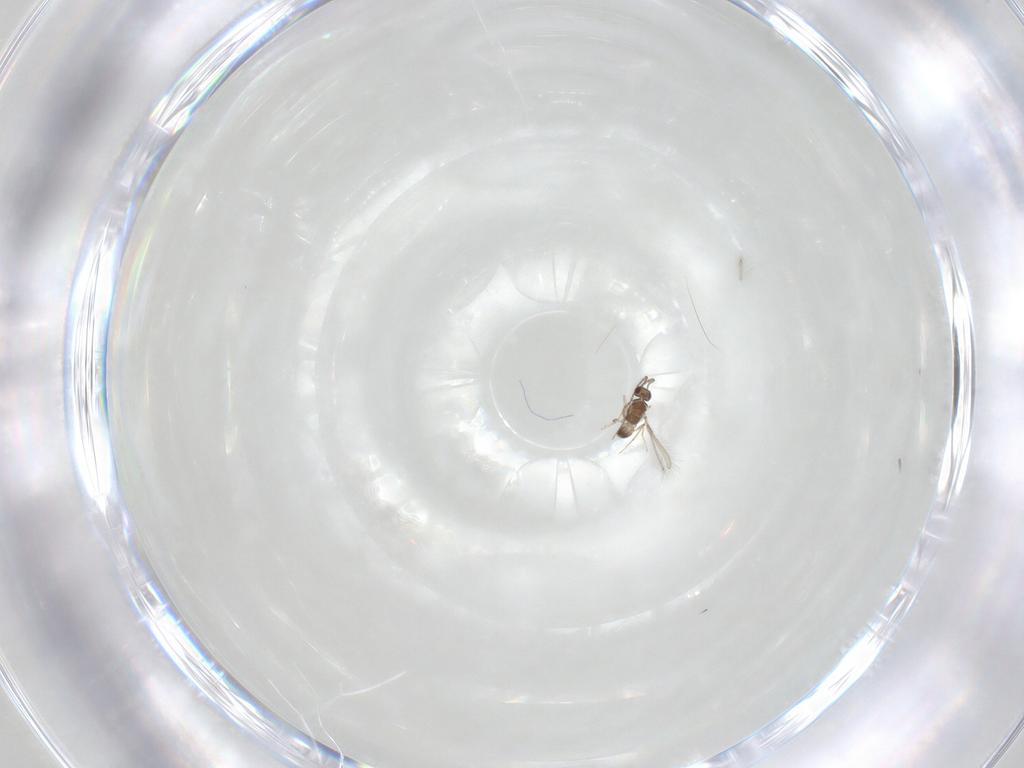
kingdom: Animalia
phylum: Arthropoda
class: Insecta
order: Hymenoptera
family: Mymaridae
